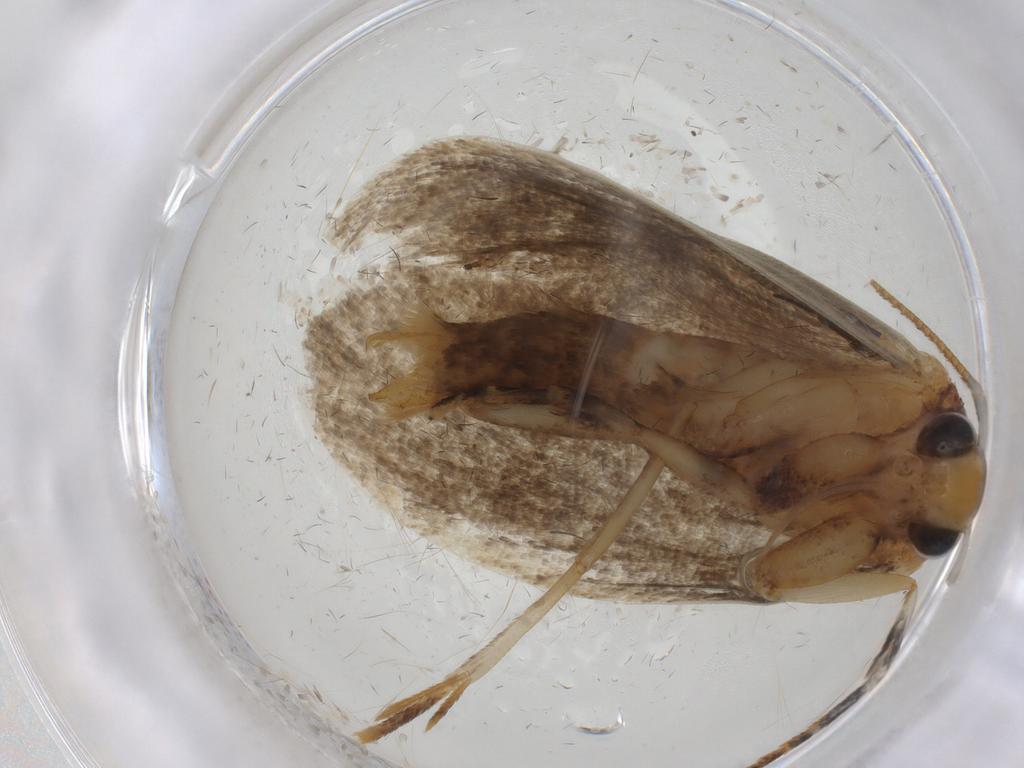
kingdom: Animalia
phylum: Arthropoda
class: Insecta
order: Lepidoptera
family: Oecophoridae
